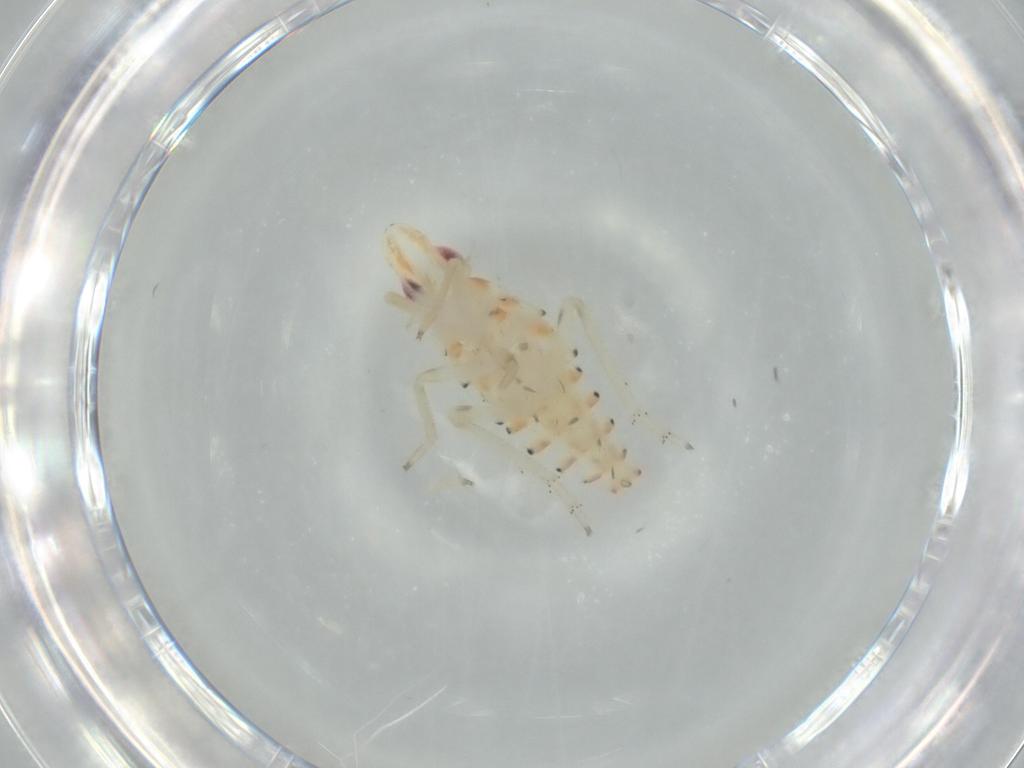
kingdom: Animalia
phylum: Arthropoda
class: Insecta
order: Hemiptera
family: Tropiduchidae
